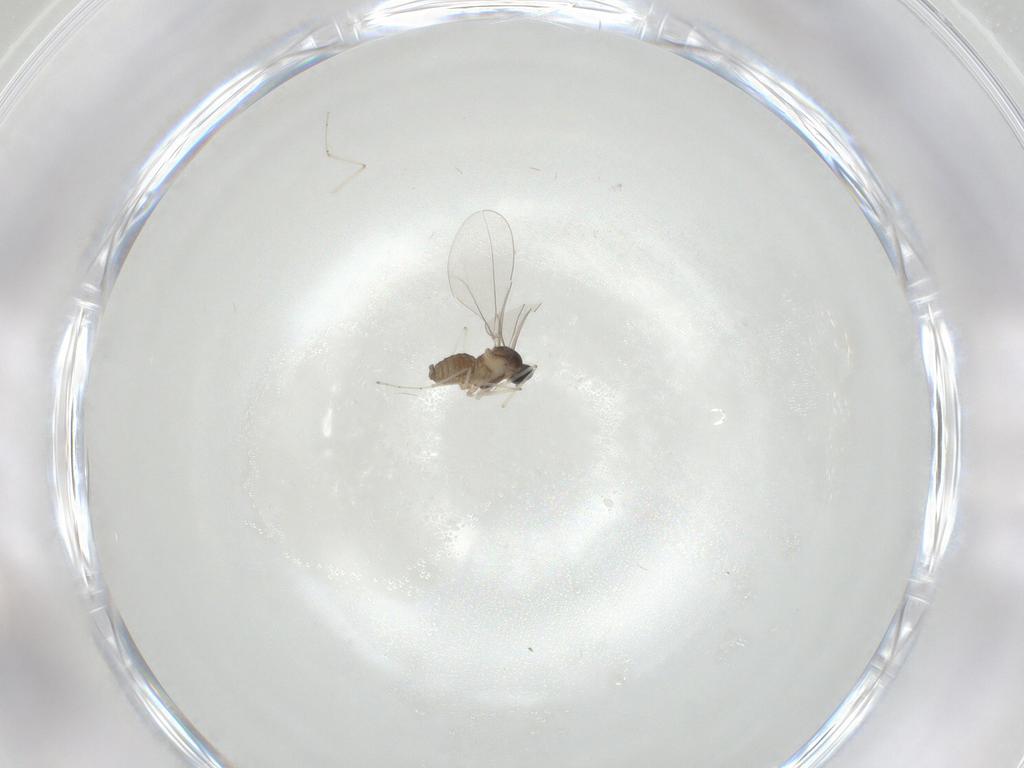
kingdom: Animalia
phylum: Arthropoda
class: Insecta
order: Diptera
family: Cecidomyiidae
